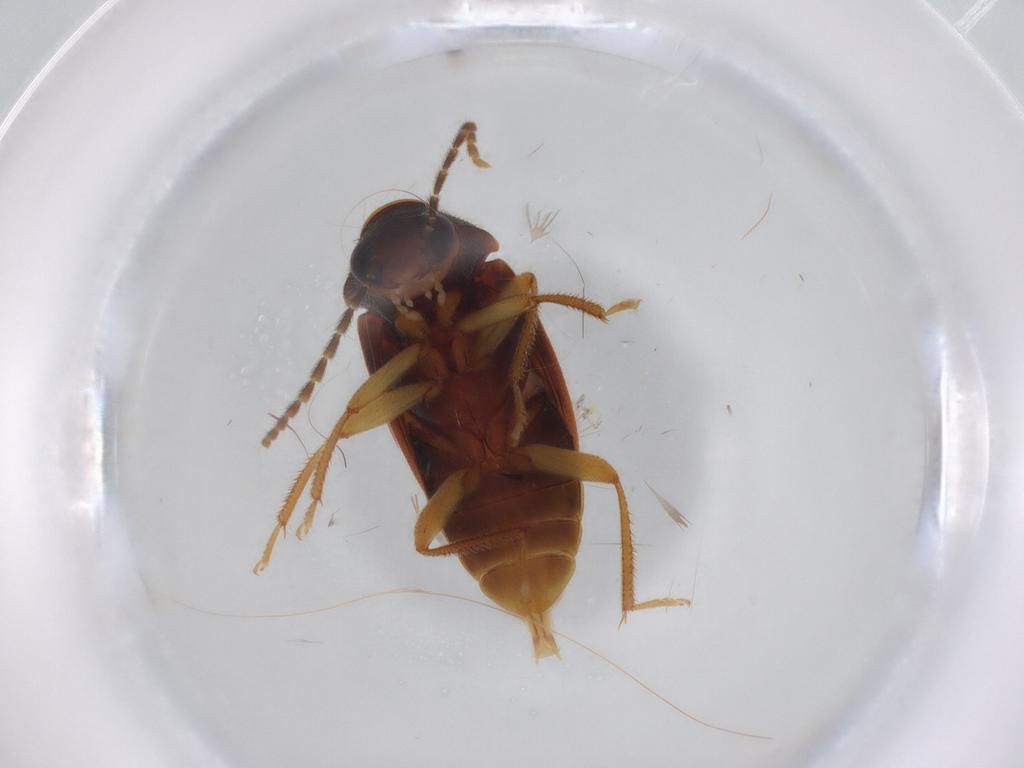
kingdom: Animalia
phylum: Arthropoda
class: Insecta
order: Coleoptera
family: Ptilodactylidae
